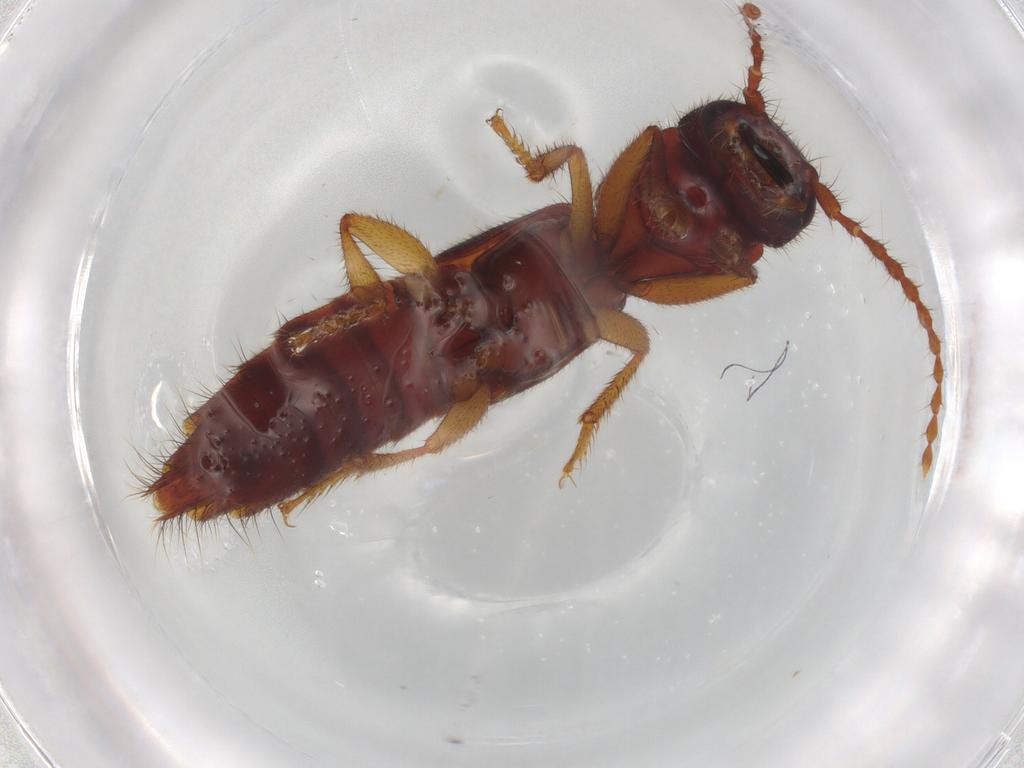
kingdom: Animalia
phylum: Arthropoda
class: Insecta
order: Coleoptera
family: Staphylinidae
